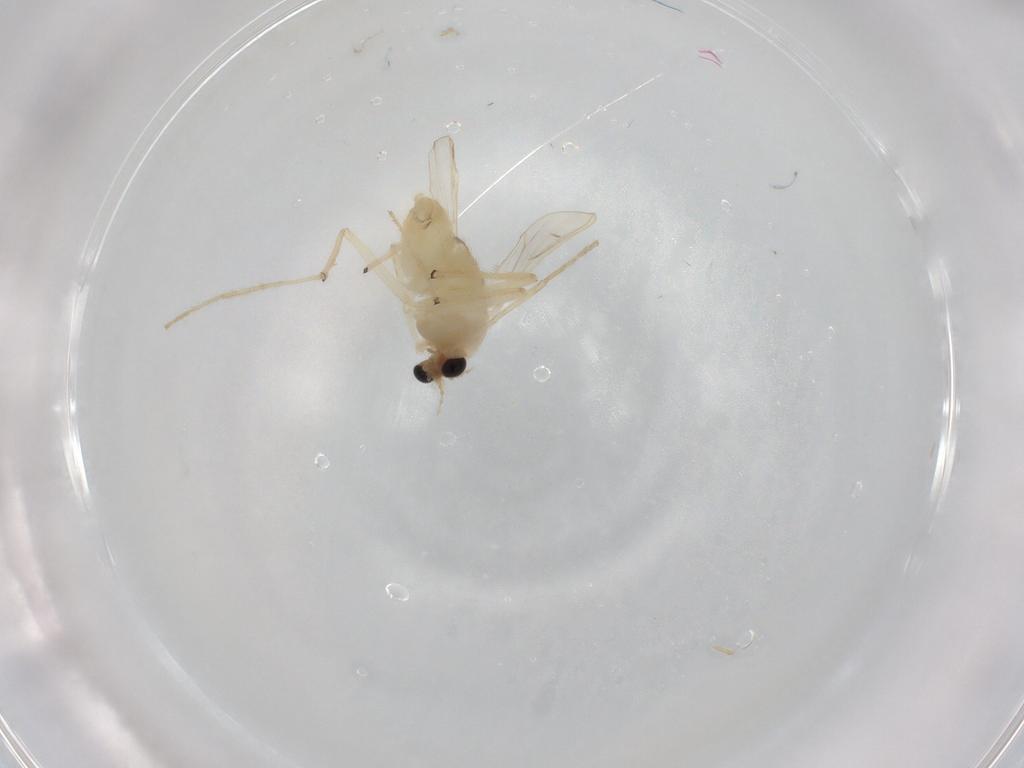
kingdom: Animalia
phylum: Arthropoda
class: Insecta
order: Diptera
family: Chironomidae
